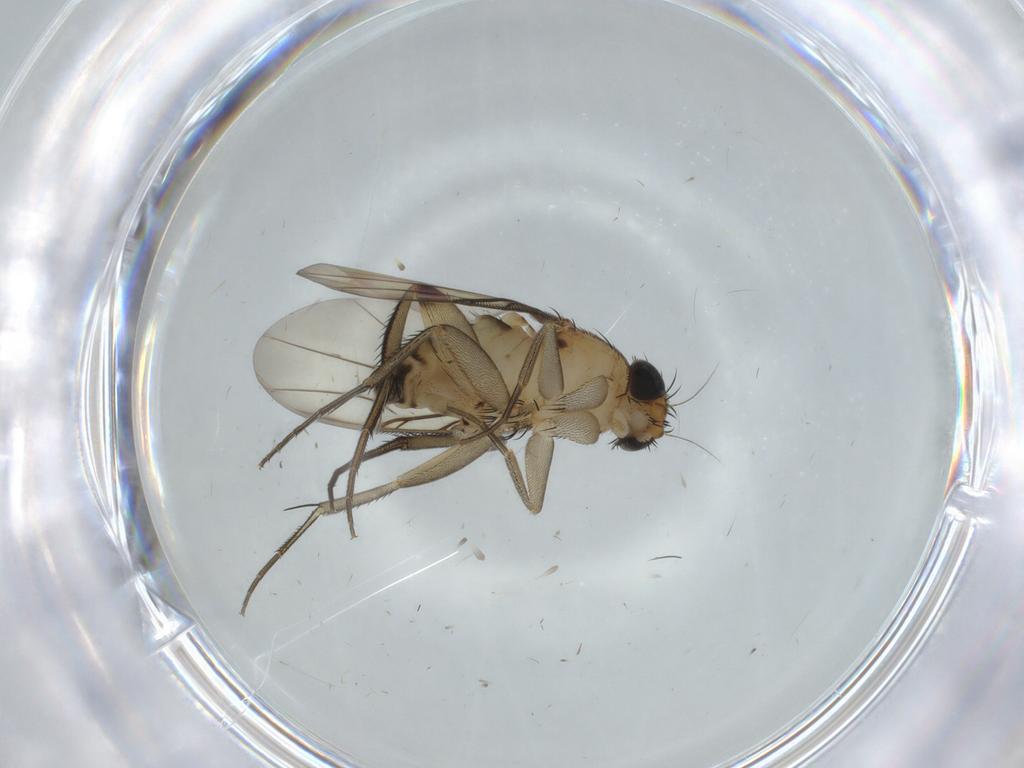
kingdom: Animalia
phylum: Arthropoda
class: Insecta
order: Diptera
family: Phoridae
